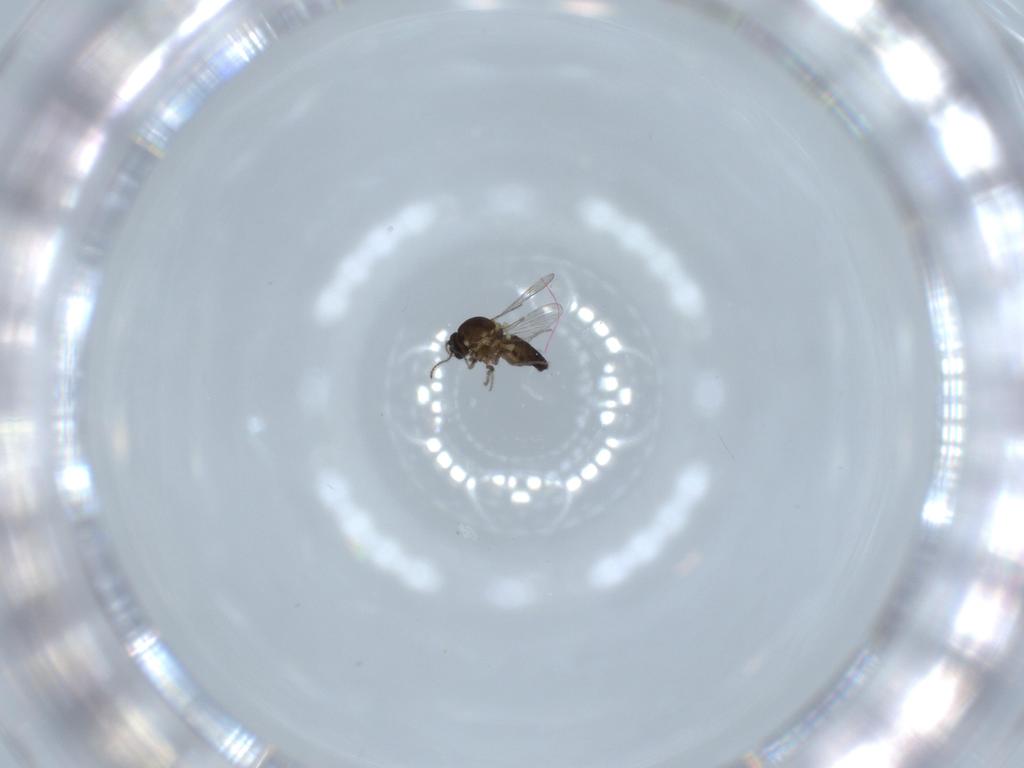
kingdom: Animalia
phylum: Arthropoda
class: Insecta
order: Diptera
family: Ceratopogonidae
